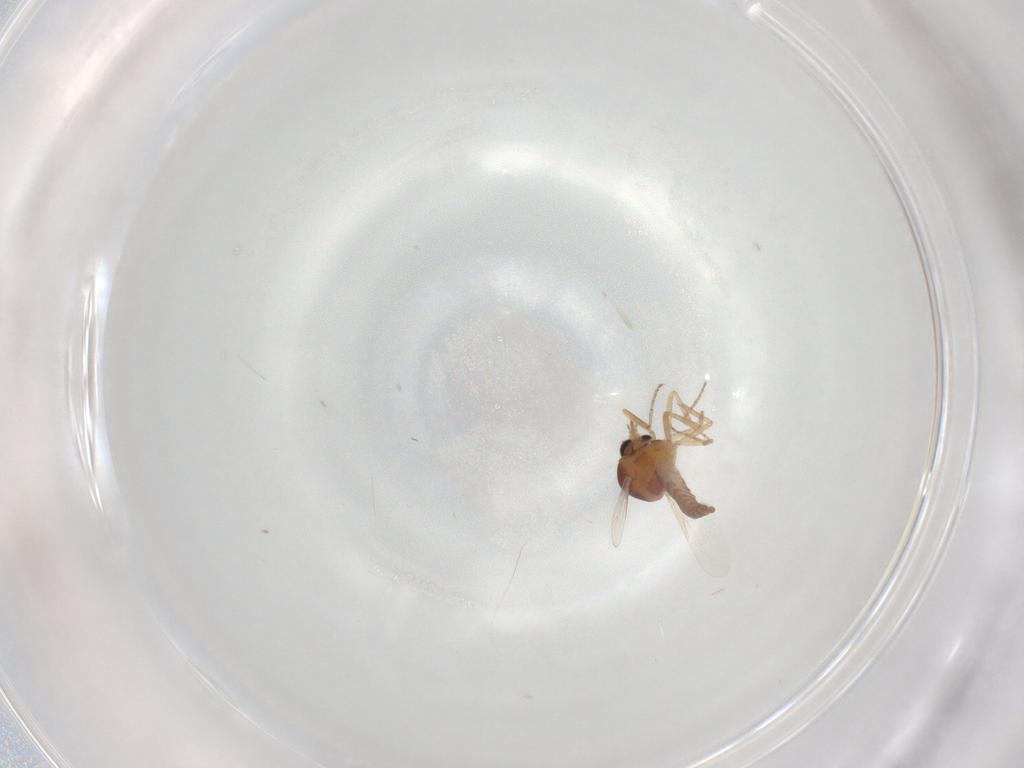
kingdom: Animalia
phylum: Arthropoda
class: Insecta
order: Diptera
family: Ceratopogonidae
